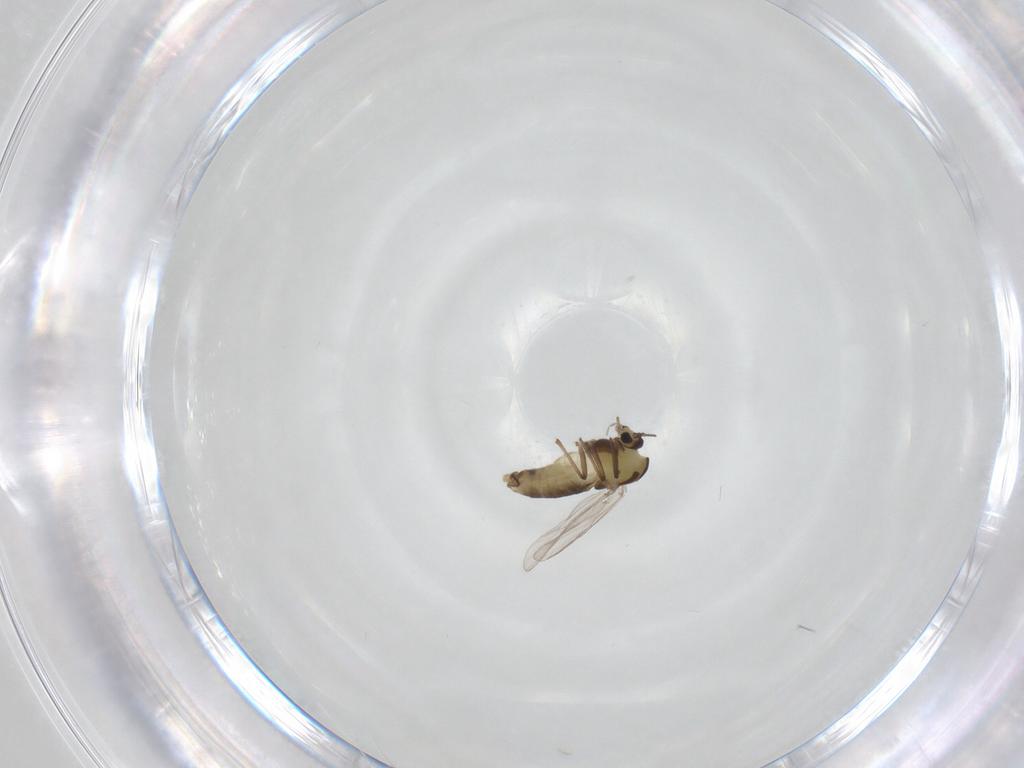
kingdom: Animalia
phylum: Arthropoda
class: Insecta
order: Diptera
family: Chironomidae
